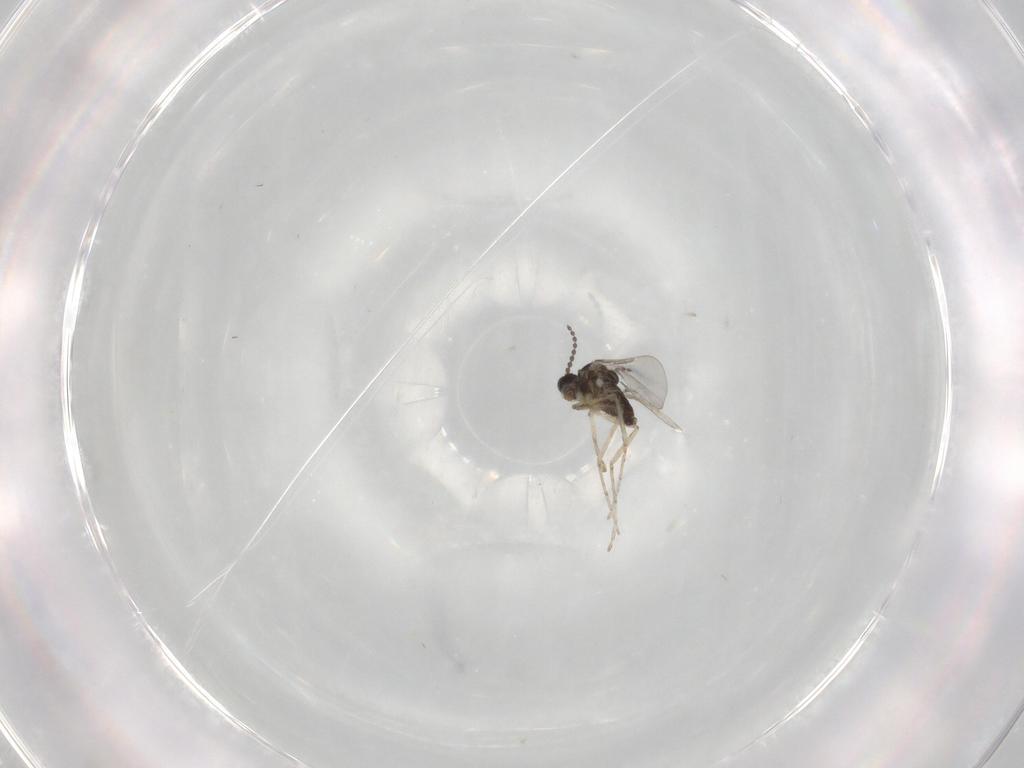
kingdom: Animalia
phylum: Arthropoda
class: Insecta
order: Diptera
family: Cecidomyiidae
